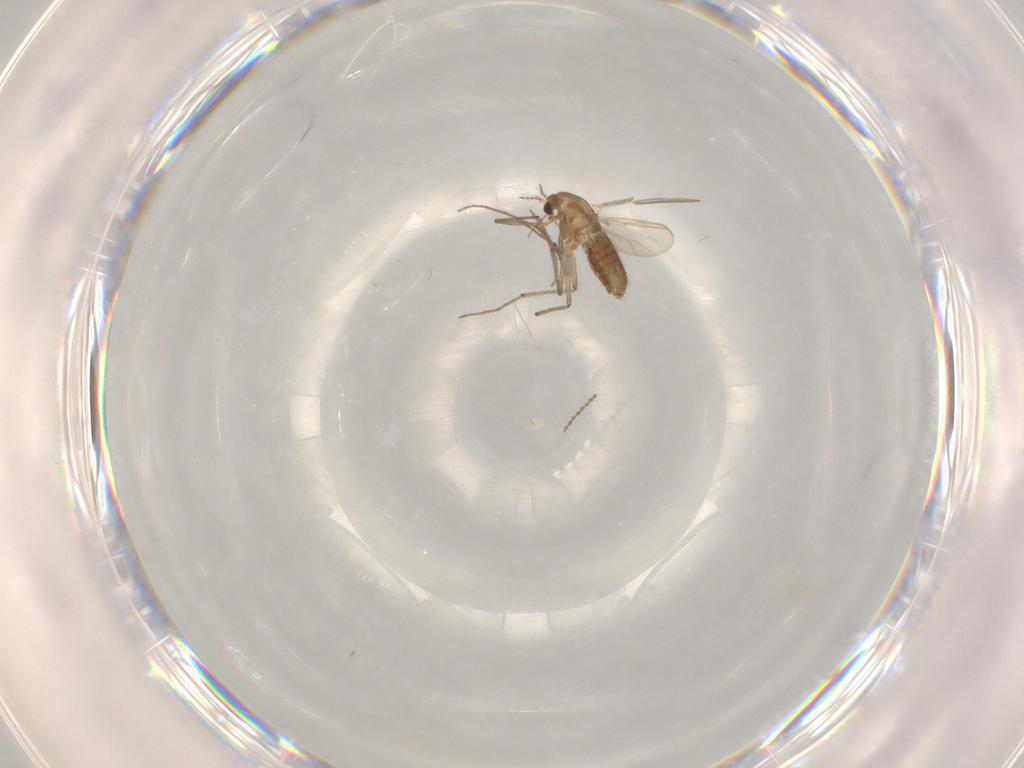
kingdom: Animalia
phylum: Arthropoda
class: Insecta
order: Diptera
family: Chironomidae
